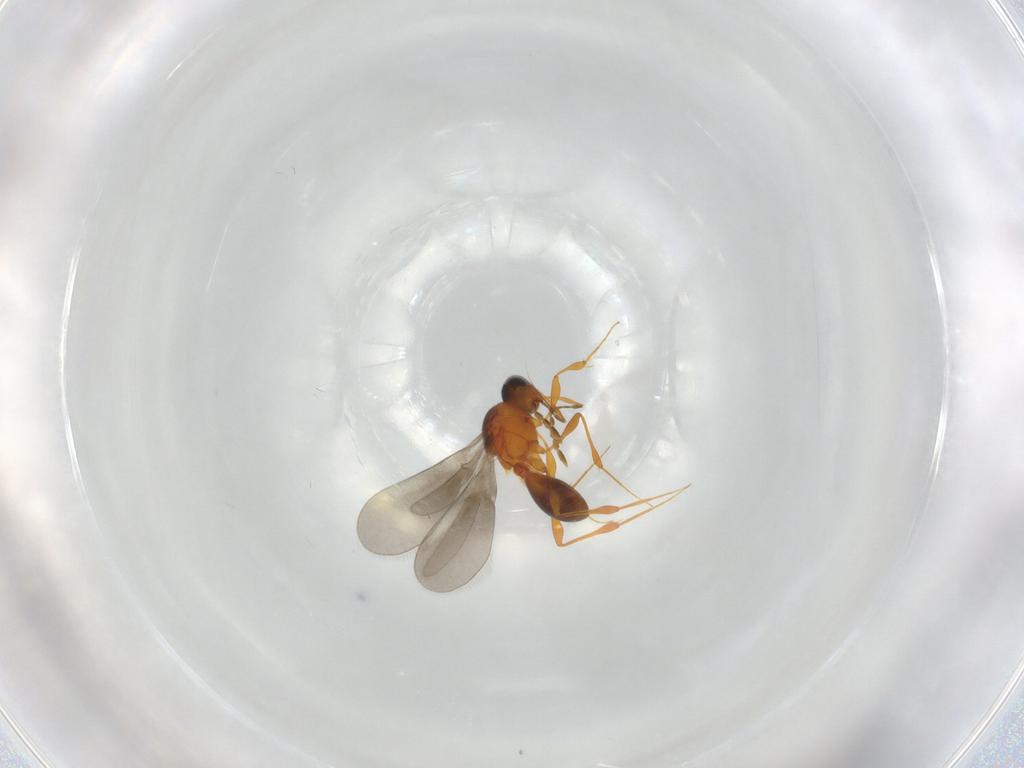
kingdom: Animalia
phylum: Arthropoda
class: Insecta
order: Hymenoptera
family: Platygastridae
